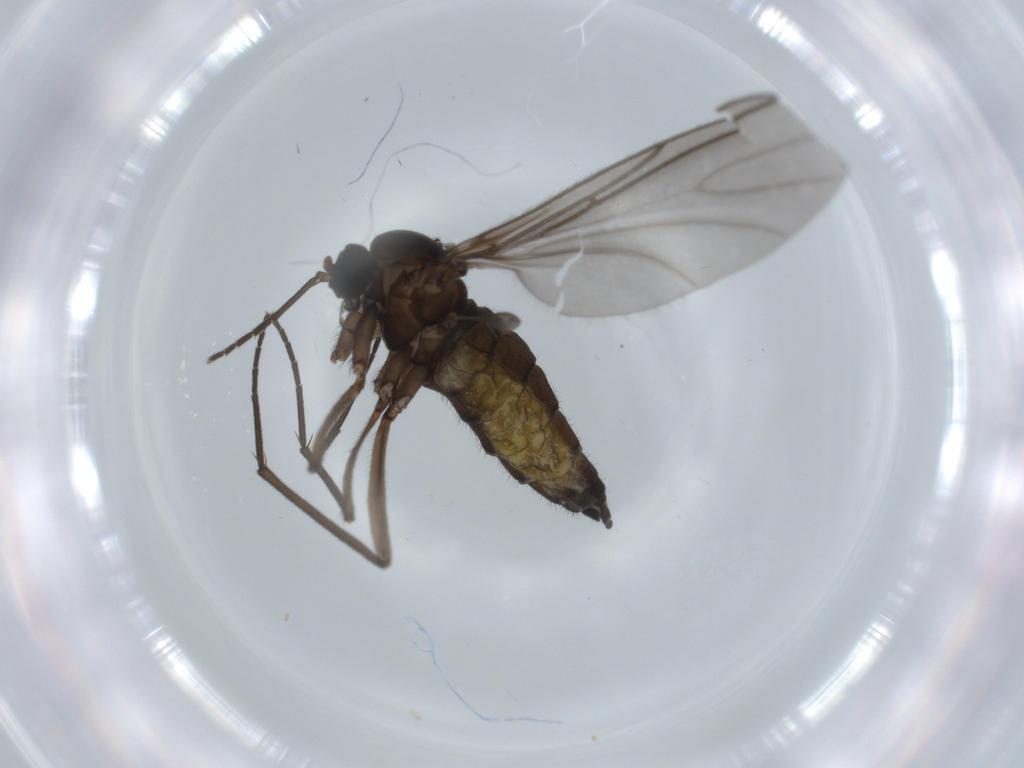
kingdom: Animalia
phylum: Arthropoda
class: Insecta
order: Diptera
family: Sciaridae
